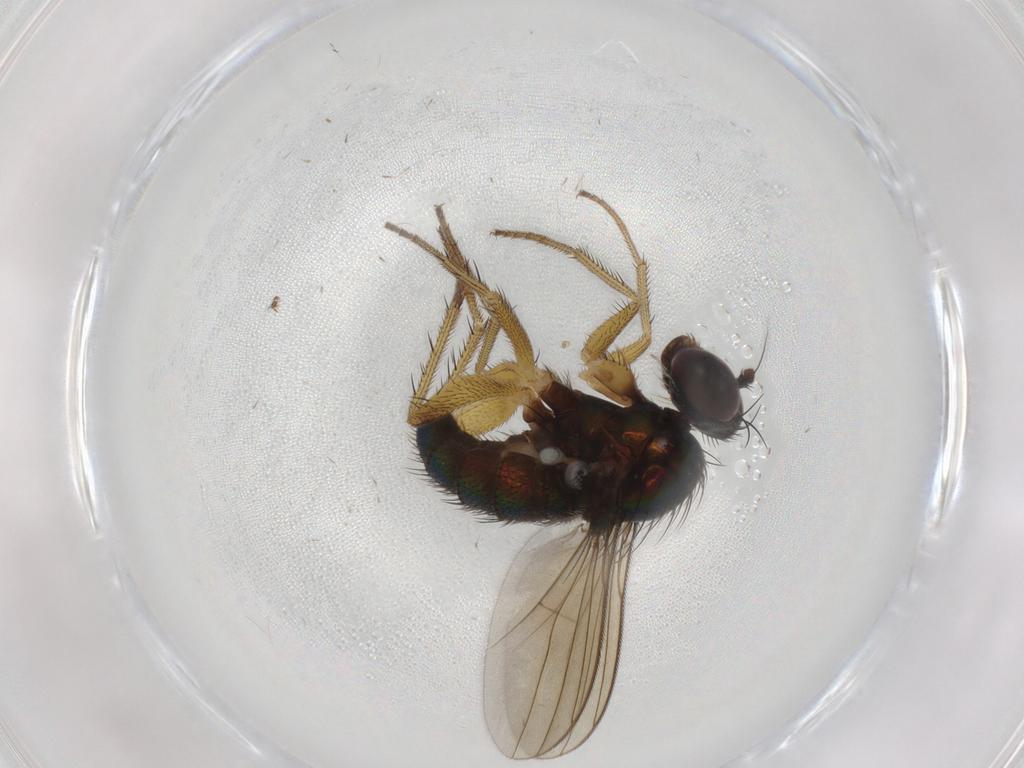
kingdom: Animalia
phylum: Arthropoda
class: Insecta
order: Diptera
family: Dolichopodidae
